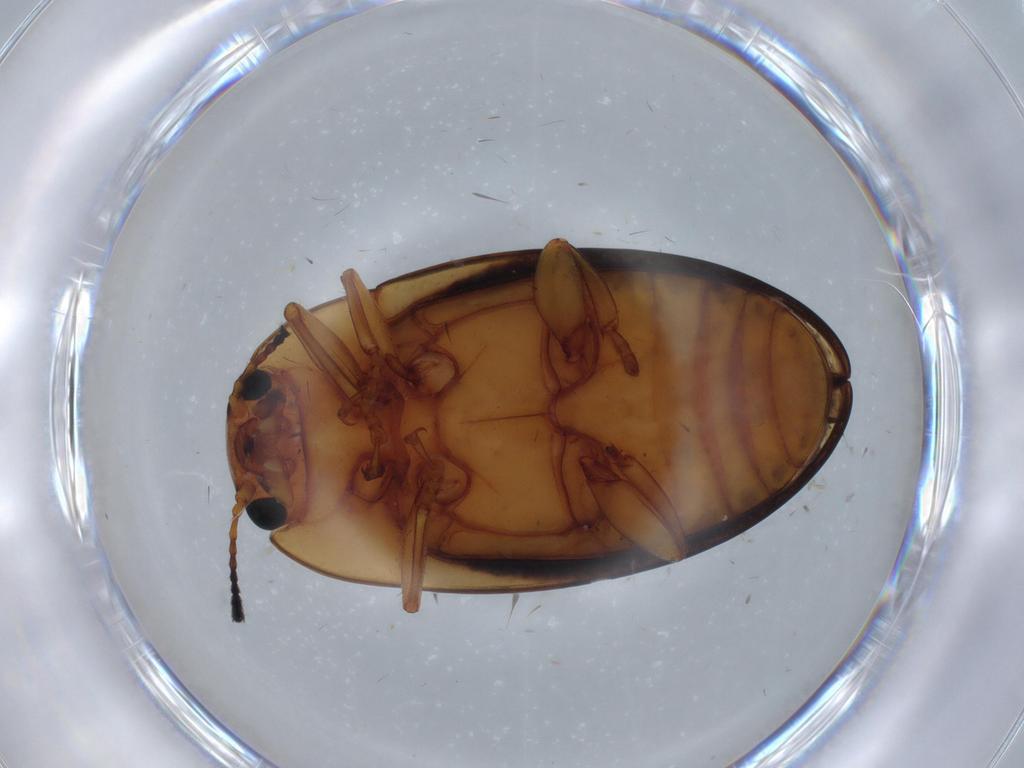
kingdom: Animalia
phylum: Arthropoda
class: Insecta
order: Coleoptera
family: Erotylidae
